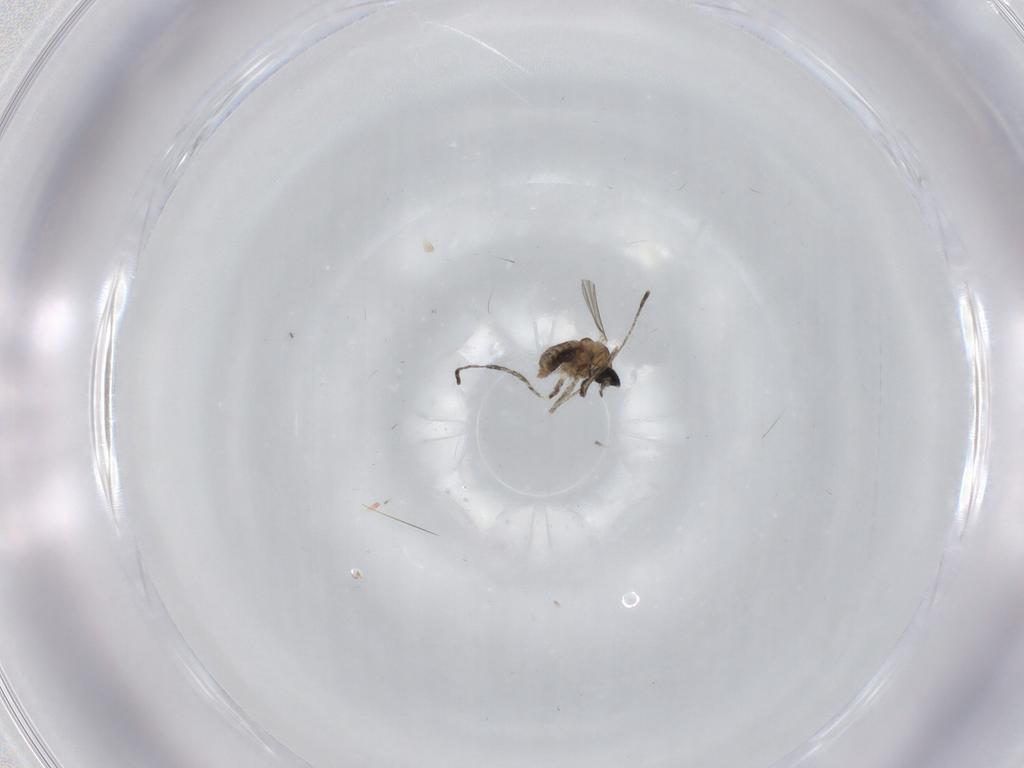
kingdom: Animalia
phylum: Arthropoda
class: Insecta
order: Diptera
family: Cecidomyiidae
